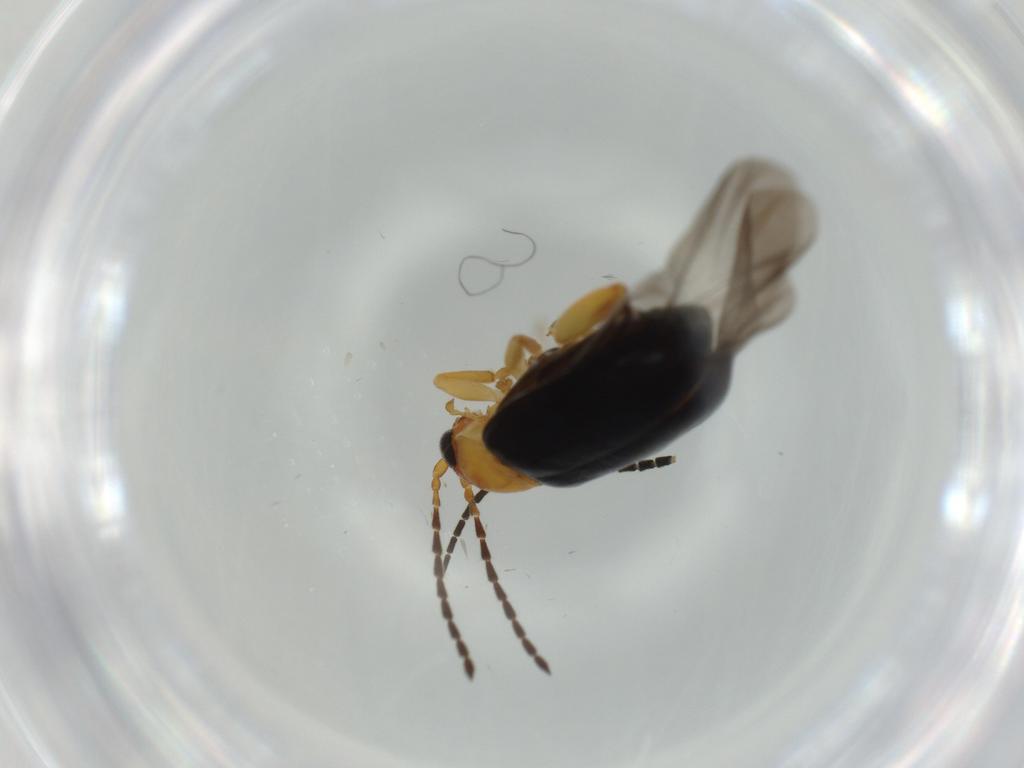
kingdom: Animalia
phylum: Arthropoda
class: Insecta
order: Coleoptera
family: Chrysomelidae
